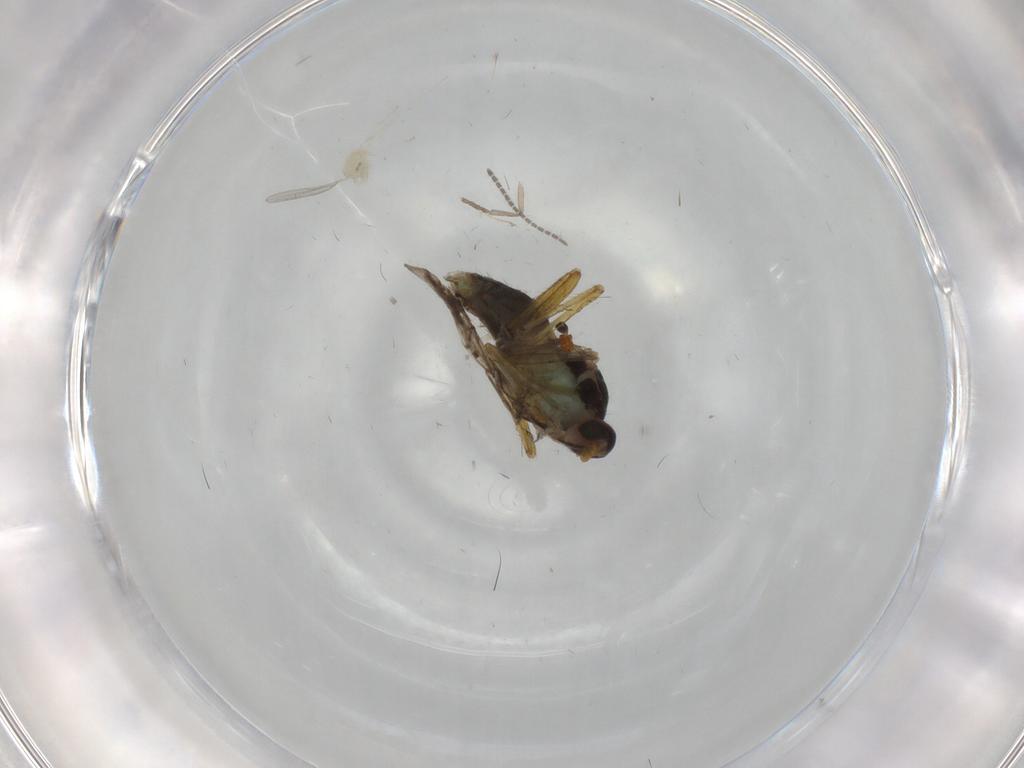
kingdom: Animalia
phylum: Arthropoda
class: Insecta
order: Diptera
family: Cecidomyiidae
